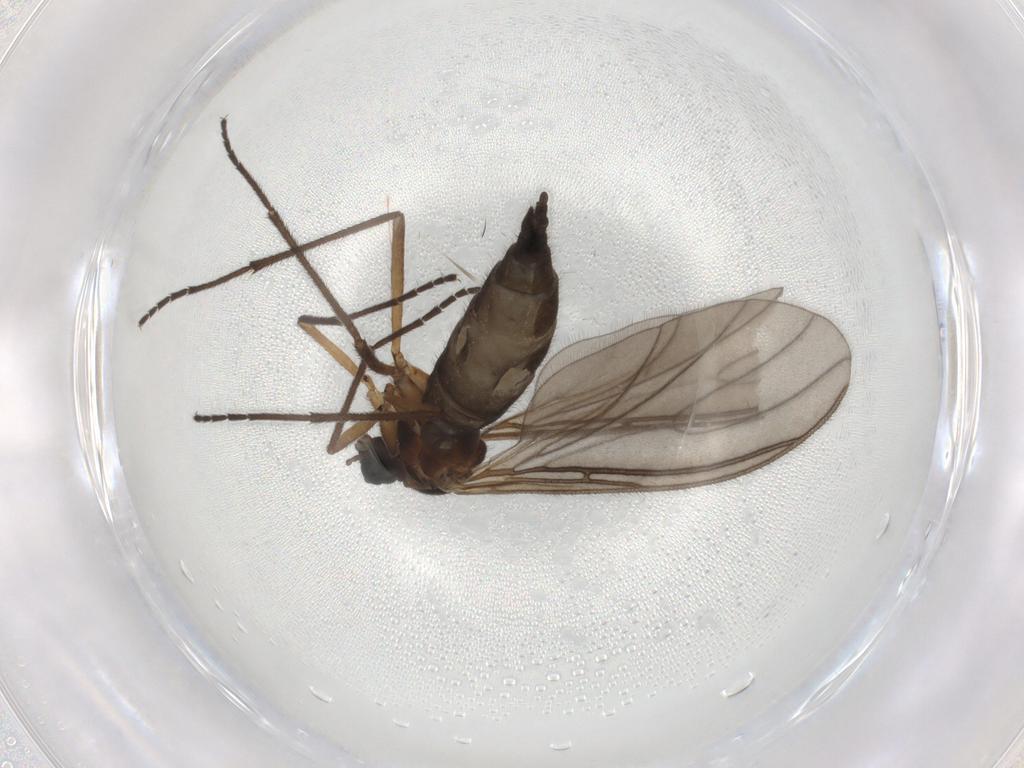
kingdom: Animalia
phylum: Arthropoda
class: Insecta
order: Diptera
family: Sciaridae
